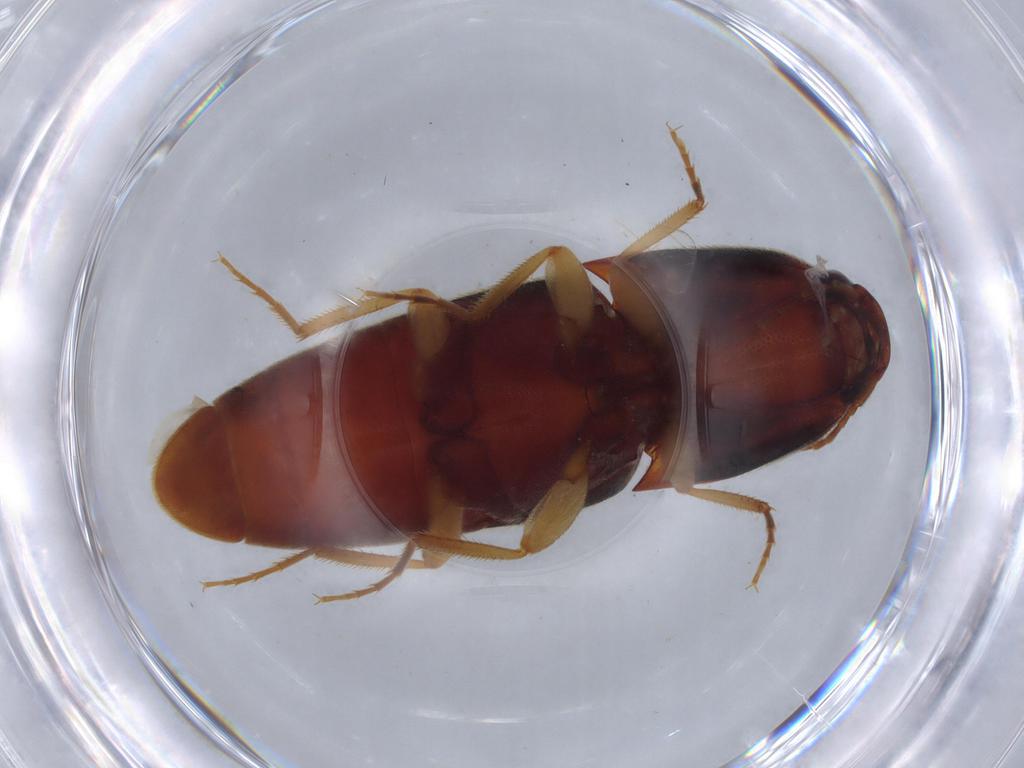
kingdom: Animalia
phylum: Arthropoda
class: Insecta
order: Coleoptera
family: Elateridae
